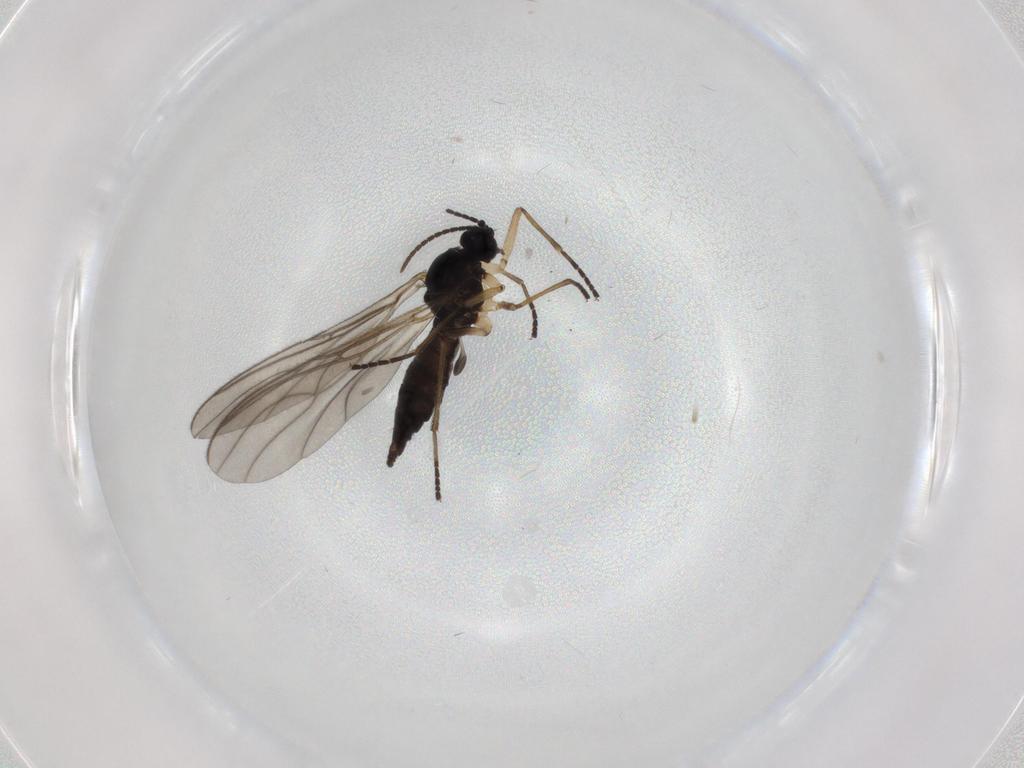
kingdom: Animalia
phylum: Arthropoda
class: Insecta
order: Diptera
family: Sciaridae
